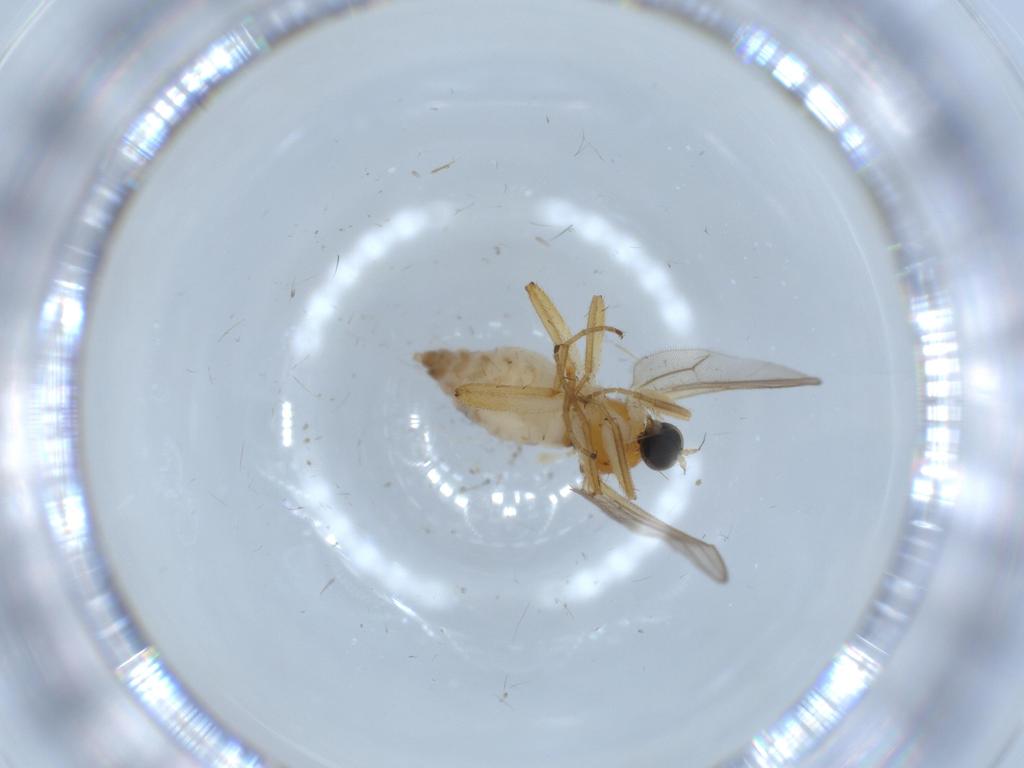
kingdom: Animalia
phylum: Arthropoda
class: Insecta
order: Diptera
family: Hybotidae
